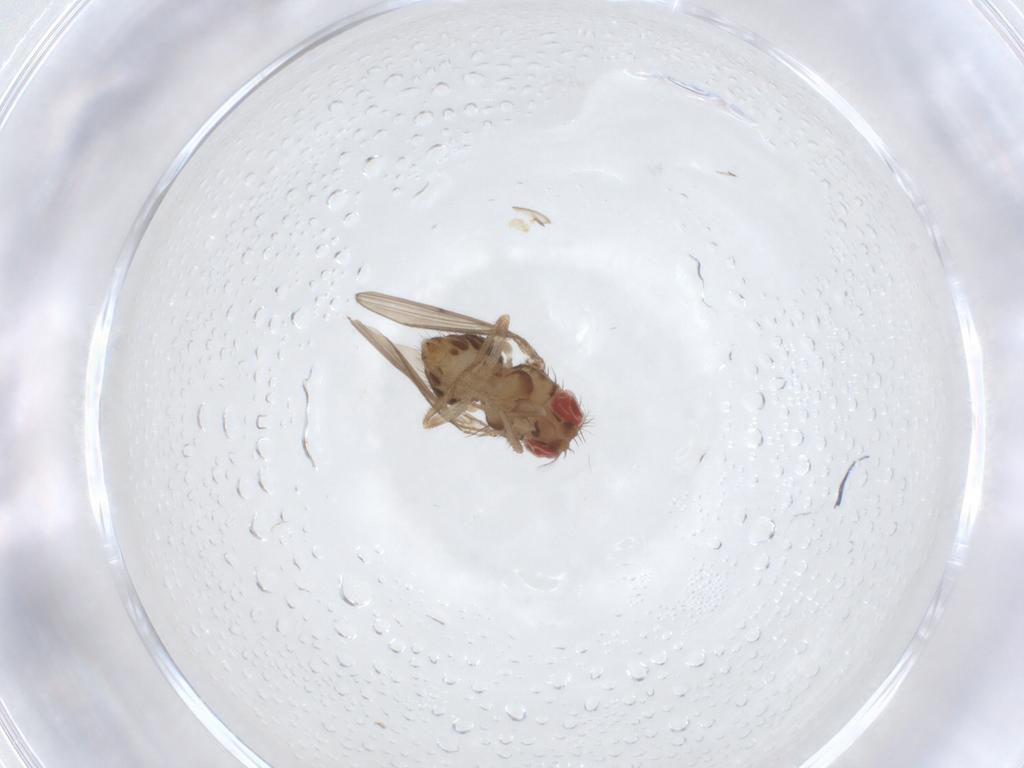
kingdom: Animalia
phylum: Arthropoda
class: Insecta
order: Diptera
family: Drosophilidae
